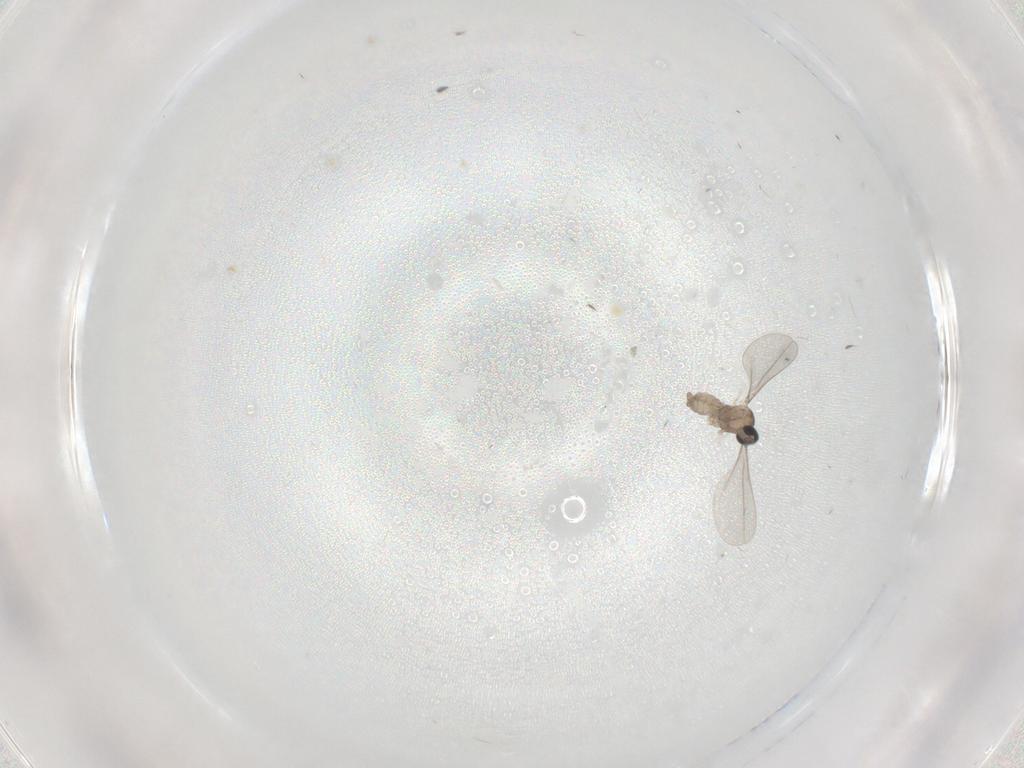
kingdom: Animalia
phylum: Arthropoda
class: Insecta
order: Diptera
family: Cecidomyiidae
